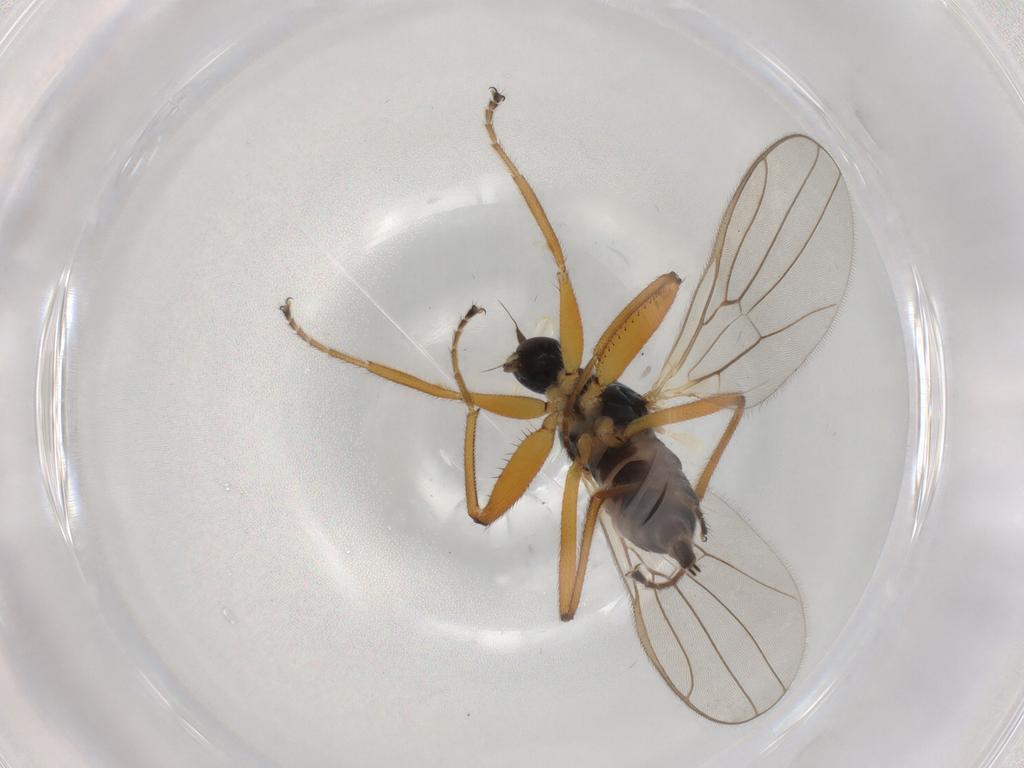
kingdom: Animalia
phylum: Arthropoda
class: Insecta
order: Diptera
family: Hybotidae
